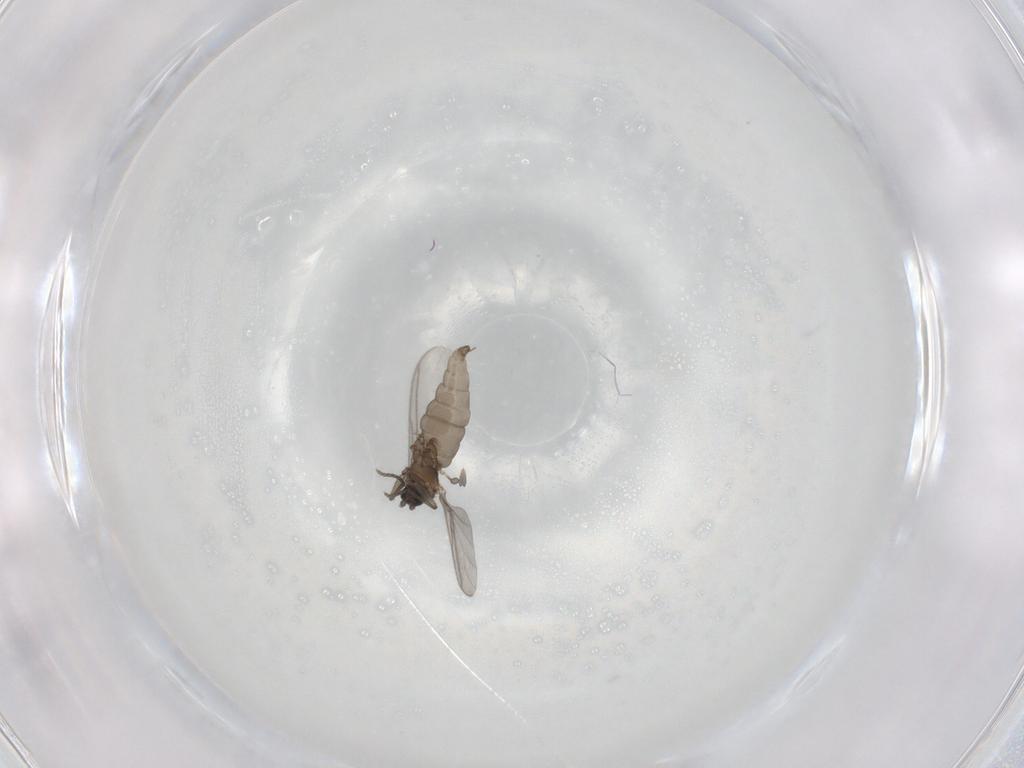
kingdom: Animalia
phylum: Arthropoda
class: Insecta
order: Diptera
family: Sciaridae
